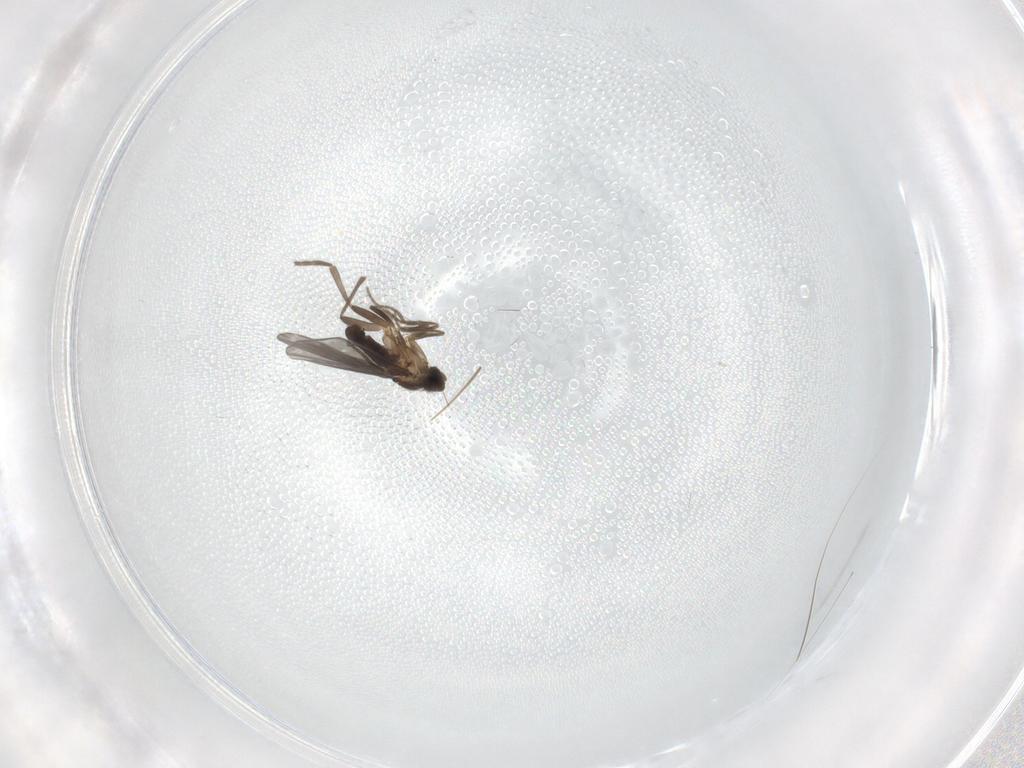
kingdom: Animalia
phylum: Arthropoda
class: Insecta
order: Diptera
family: Phoridae
